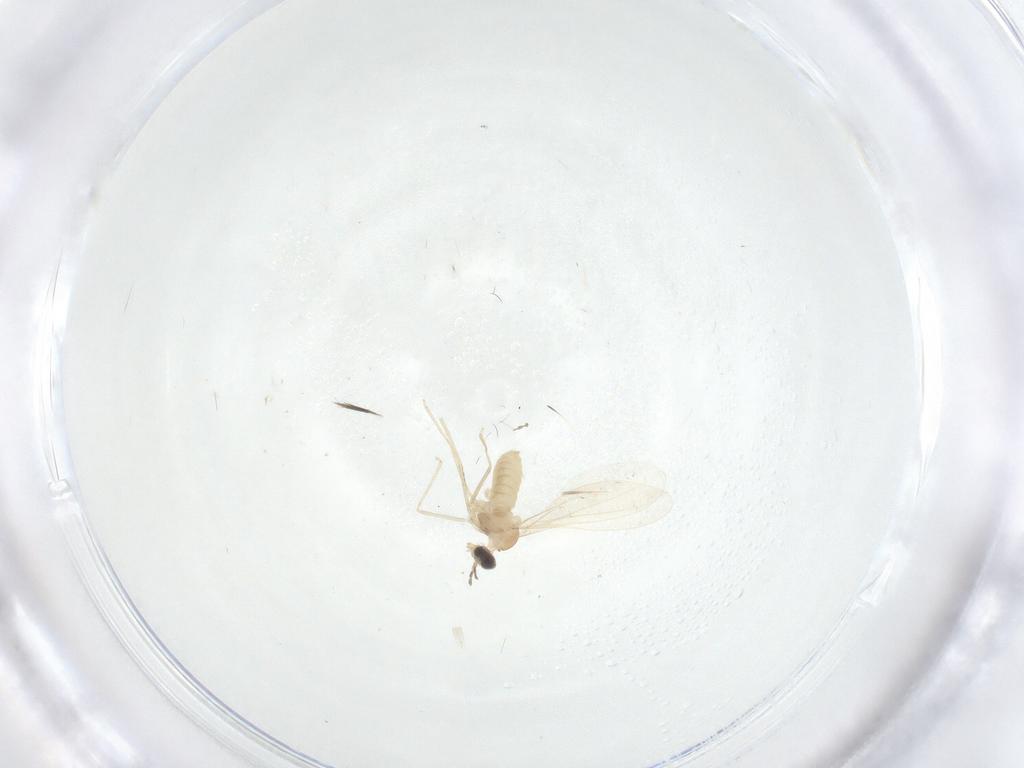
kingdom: Animalia
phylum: Arthropoda
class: Insecta
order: Diptera
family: Cecidomyiidae
